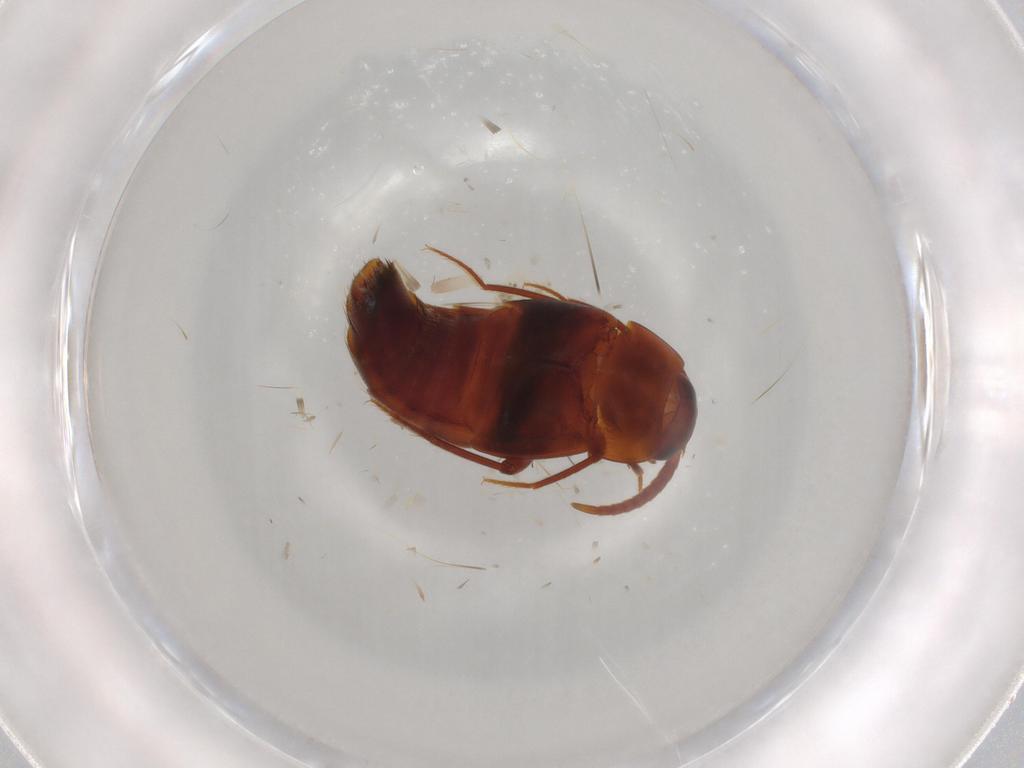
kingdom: Animalia
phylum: Arthropoda
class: Insecta
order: Coleoptera
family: Staphylinidae
